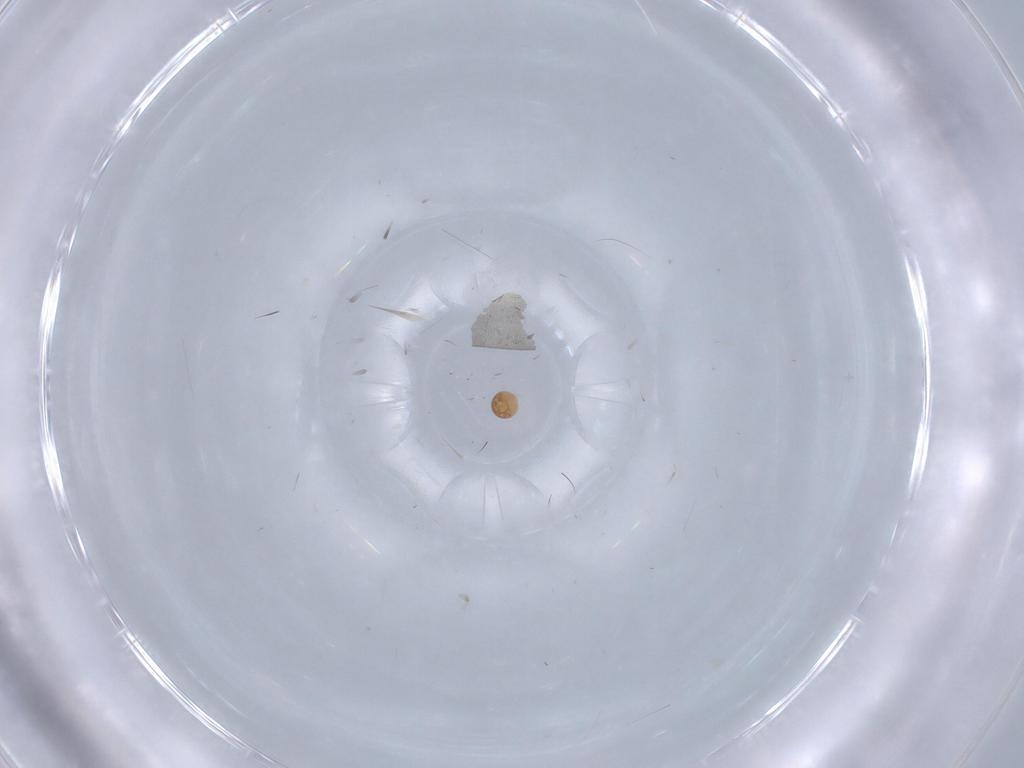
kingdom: Animalia
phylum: Arthropoda
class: Arachnida
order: Trombidiformes
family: Scutacaridae
